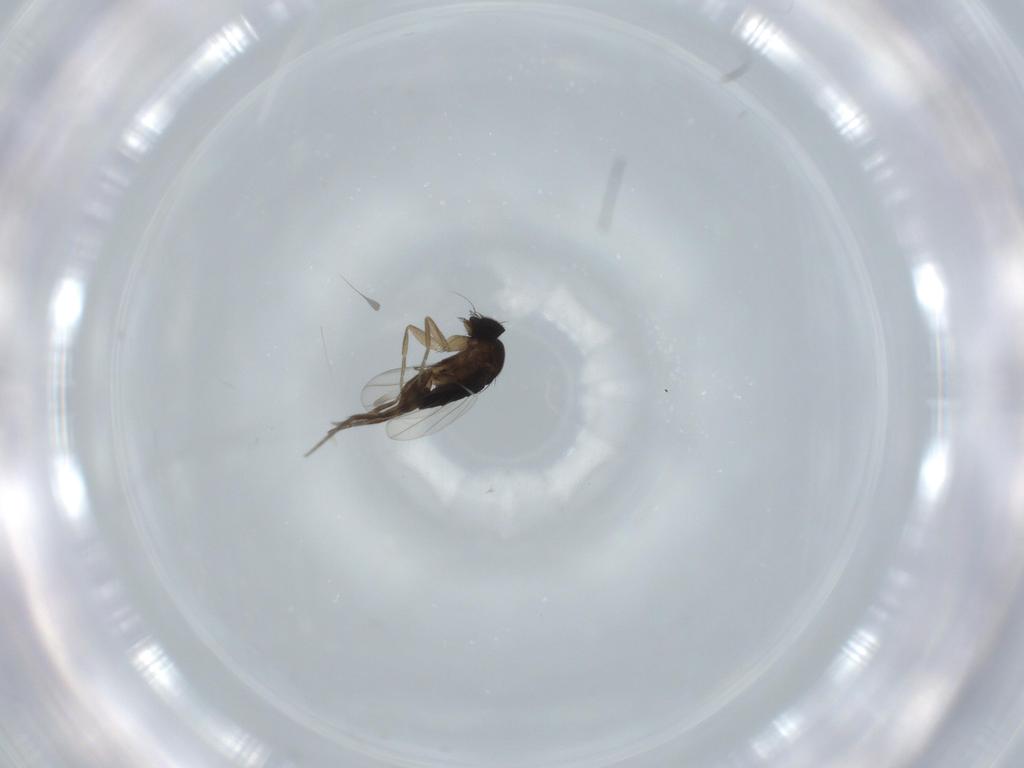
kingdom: Animalia
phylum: Arthropoda
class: Insecta
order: Diptera
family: Phoridae
